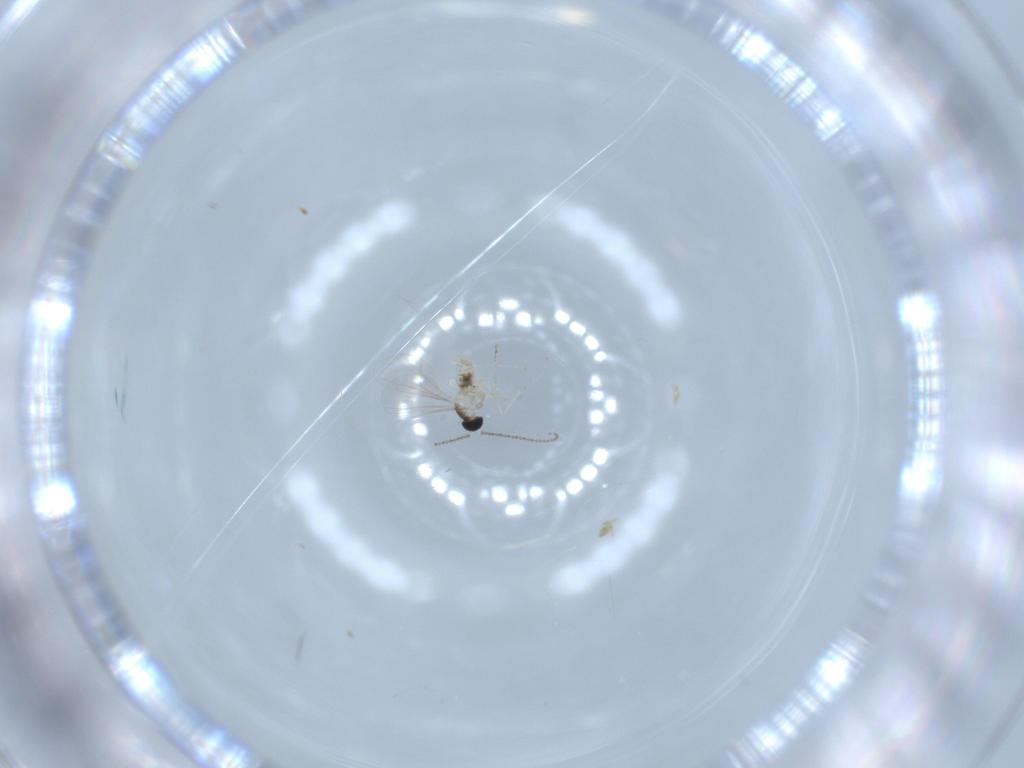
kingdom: Animalia
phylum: Arthropoda
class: Insecta
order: Diptera
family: Cecidomyiidae
